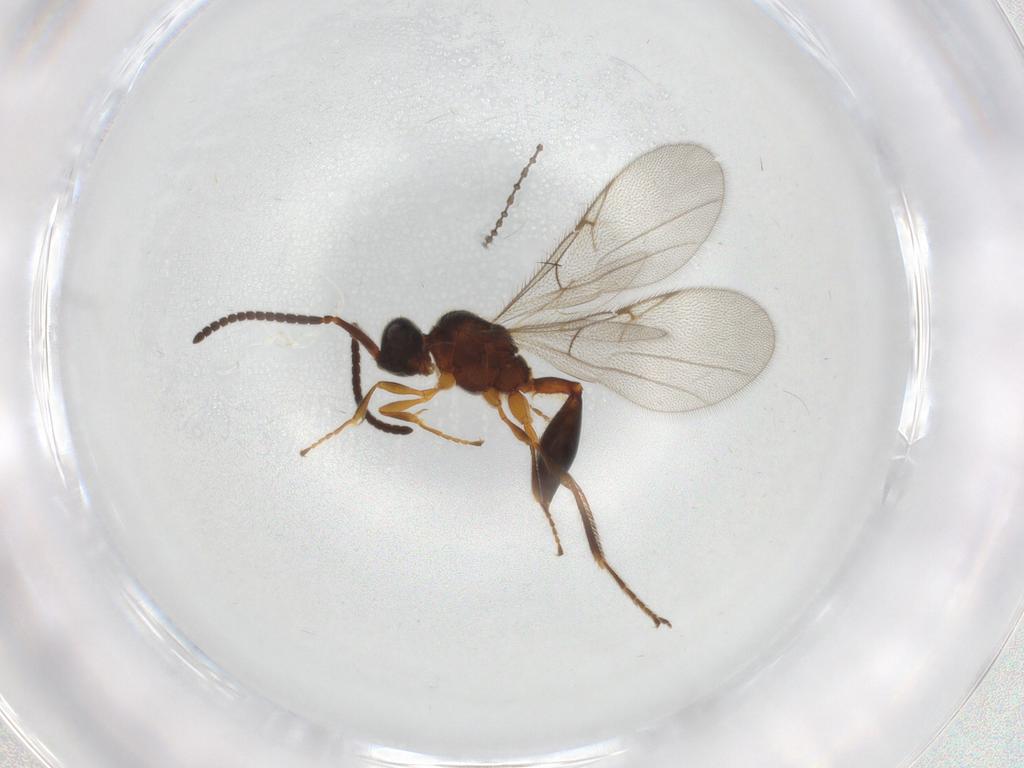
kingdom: Animalia
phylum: Arthropoda
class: Insecta
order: Hymenoptera
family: Diapriidae
